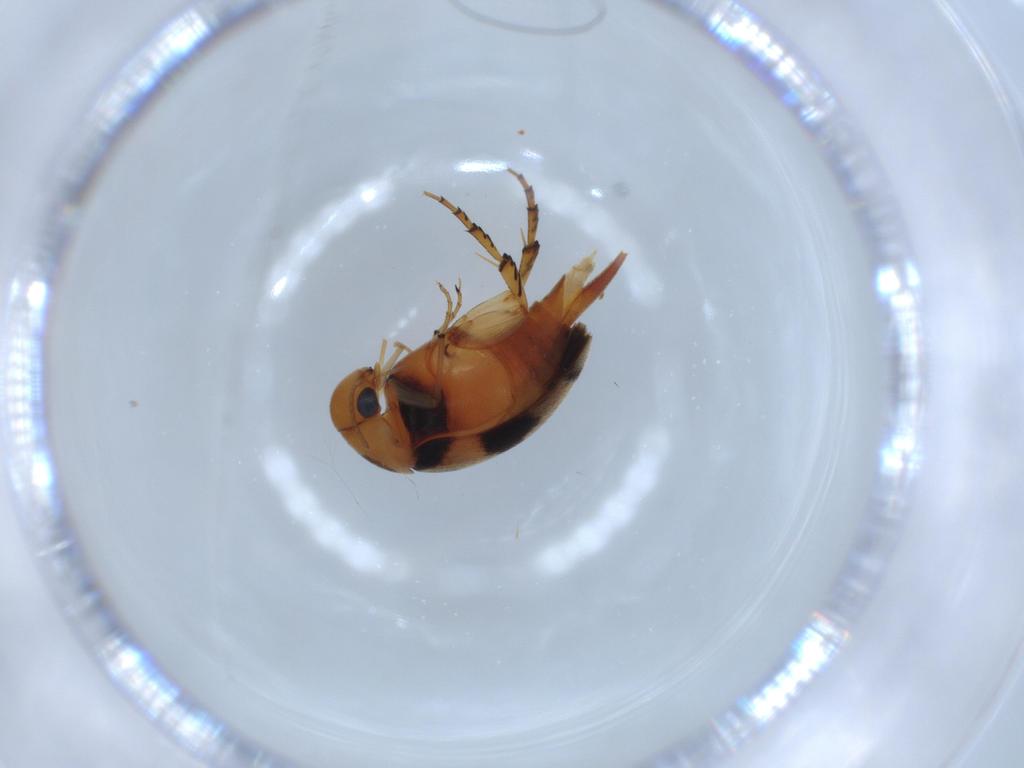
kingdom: Animalia
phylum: Arthropoda
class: Insecta
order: Coleoptera
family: Mordellidae
